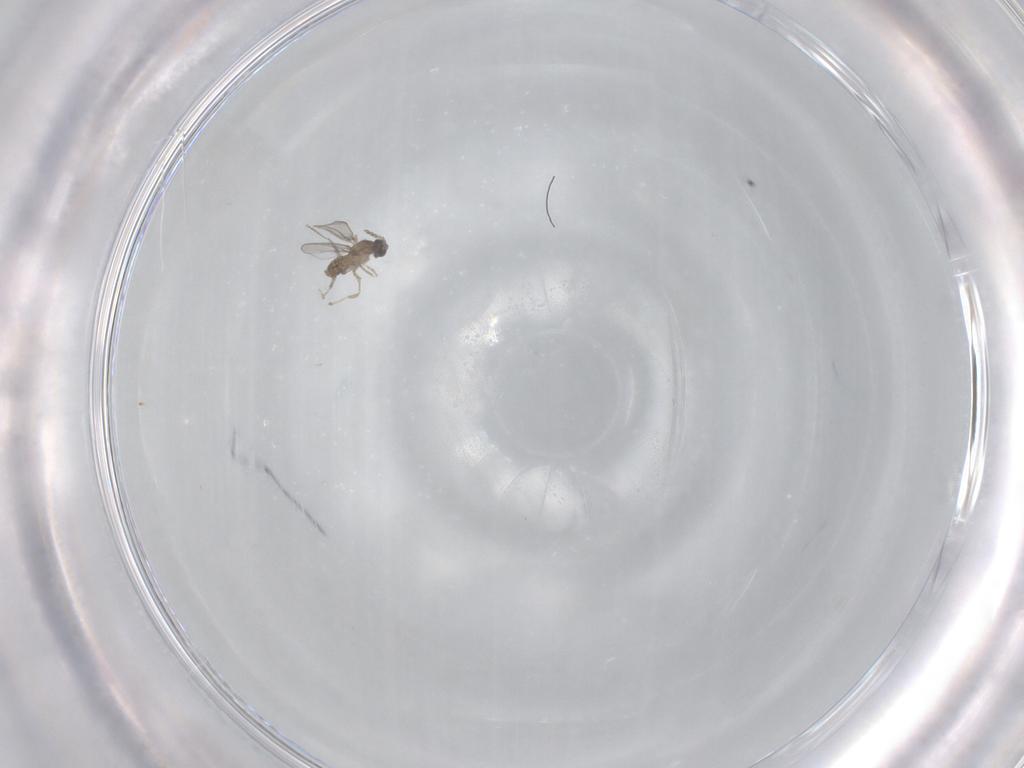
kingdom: Animalia
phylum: Arthropoda
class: Insecta
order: Diptera
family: Cecidomyiidae
